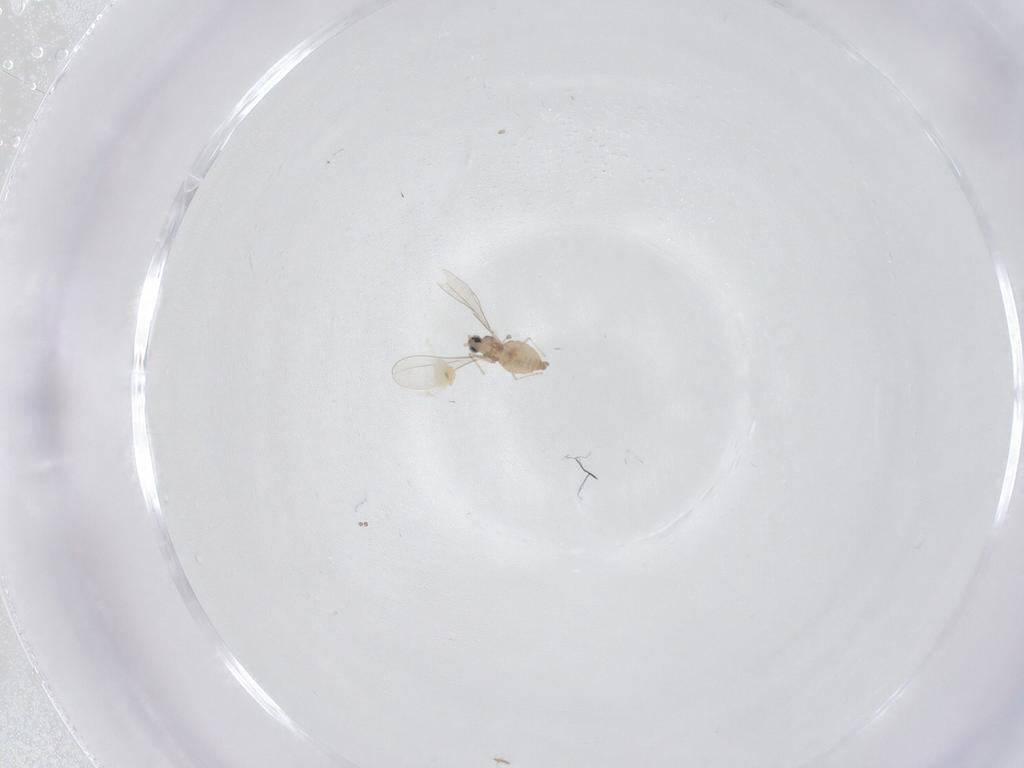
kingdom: Animalia
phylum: Arthropoda
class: Insecta
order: Diptera
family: Cecidomyiidae
